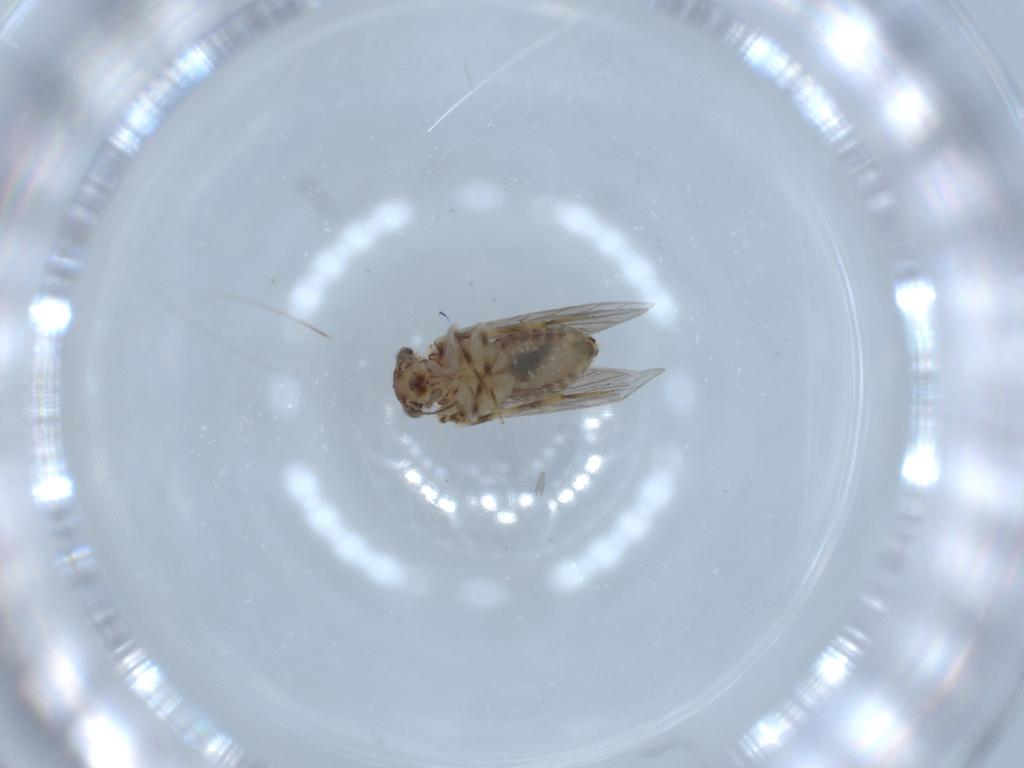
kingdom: Animalia
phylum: Arthropoda
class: Insecta
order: Psocodea
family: Lepidopsocidae
